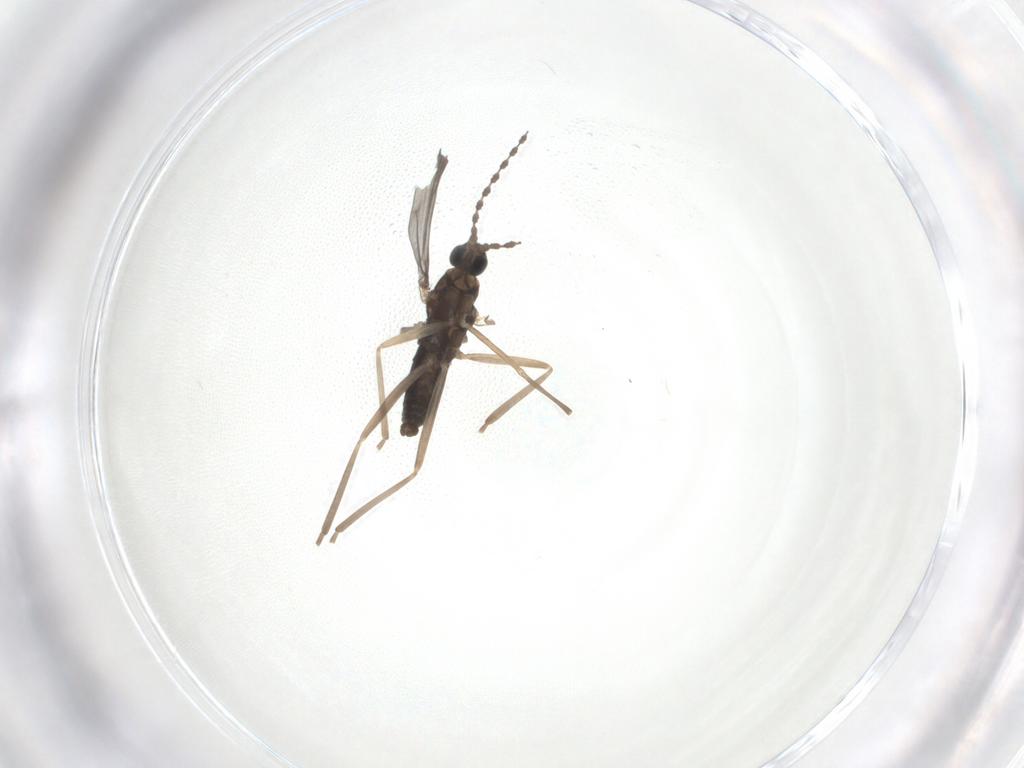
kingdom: Animalia
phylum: Arthropoda
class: Insecta
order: Diptera
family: Cecidomyiidae
